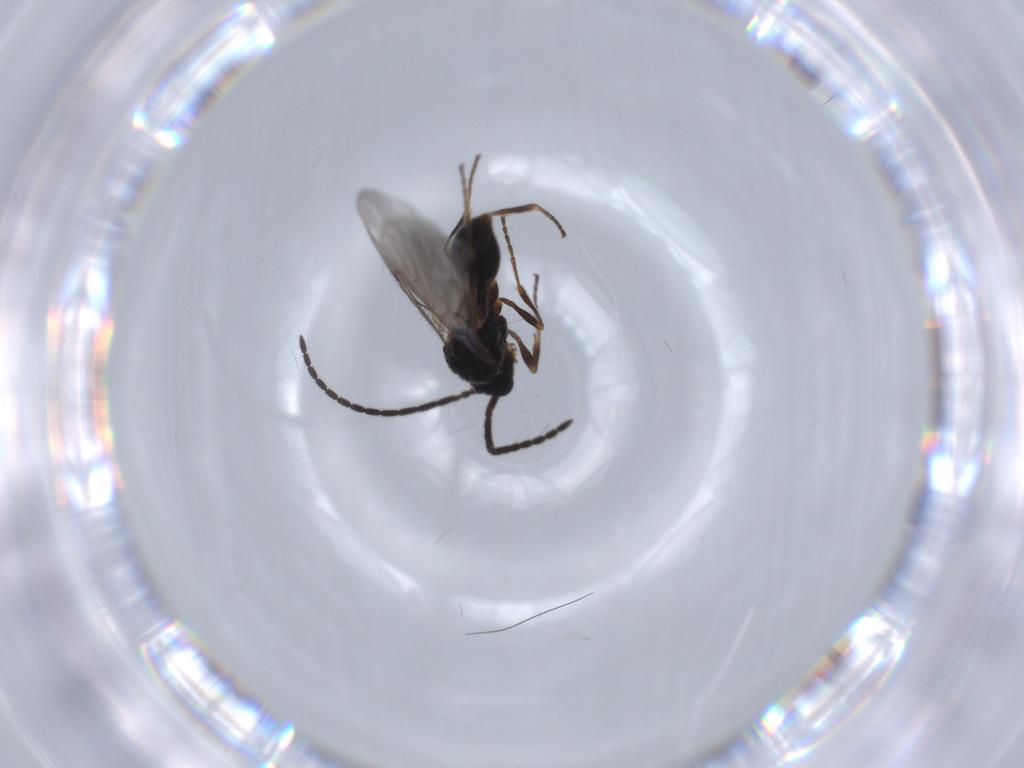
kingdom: Animalia
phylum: Arthropoda
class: Insecta
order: Hymenoptera
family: Diapriidae
